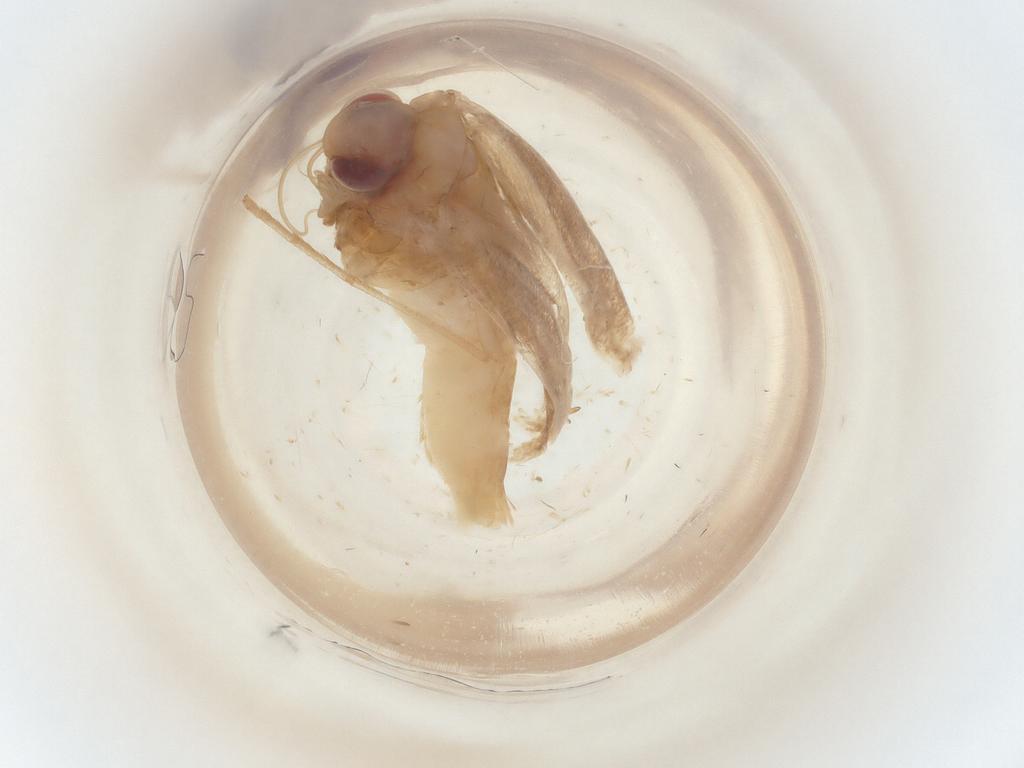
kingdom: Animalia
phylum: Arthropoda
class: Insecta
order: Lepidoptera
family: Gracillariidae
